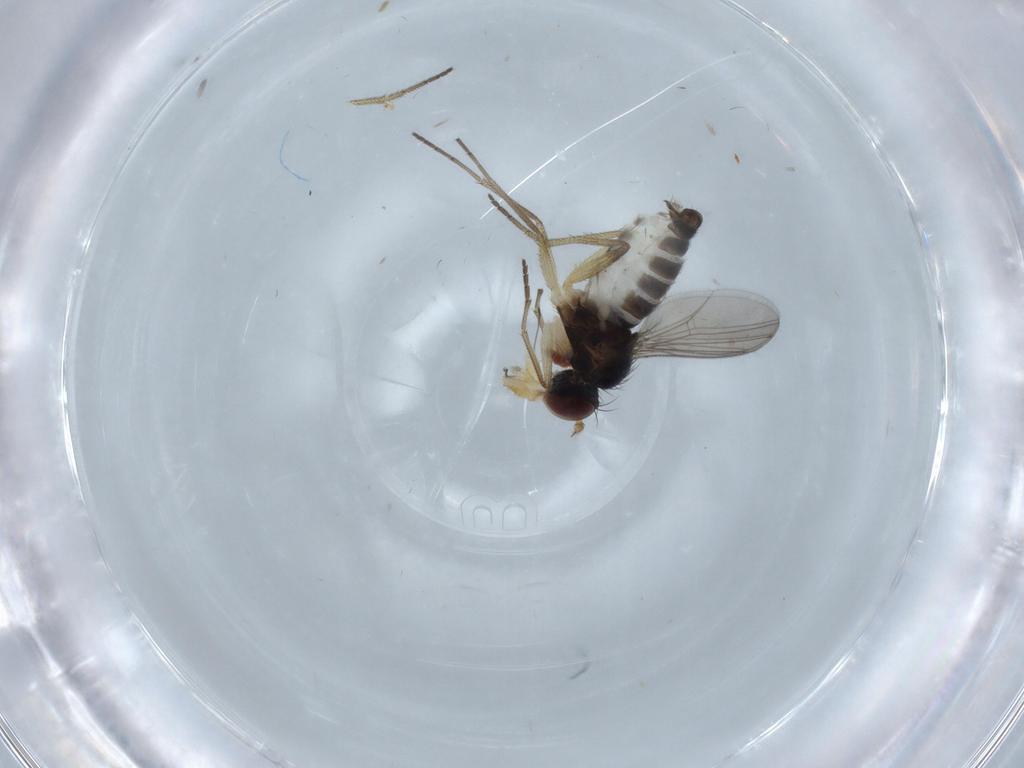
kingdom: Animalia
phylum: Arthropoda
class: Insecta
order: Diptera
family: Dolichopodidae
